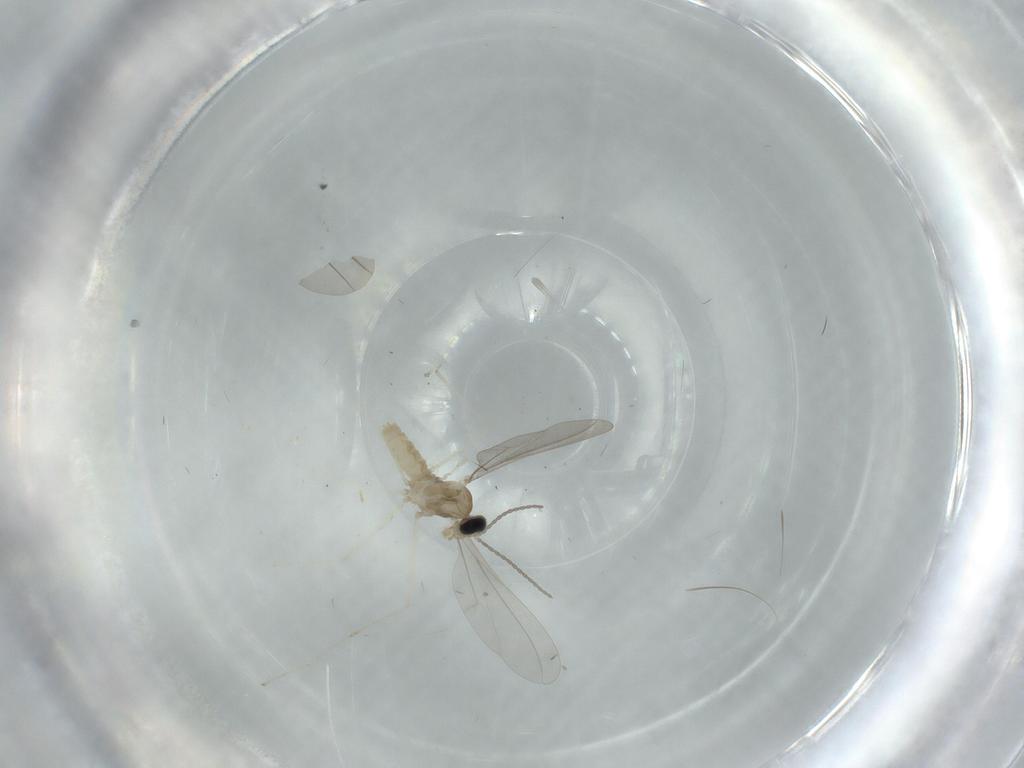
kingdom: Animalia
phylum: Arthropoda
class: Insecta
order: Diptera
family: Cecidomyiidae
